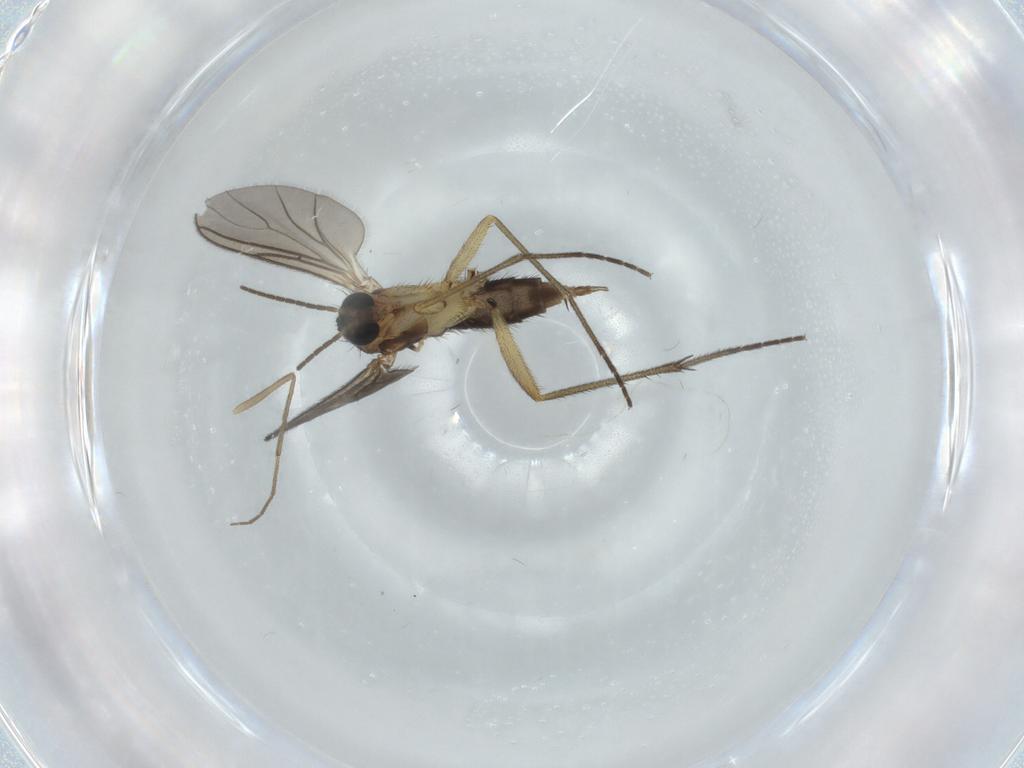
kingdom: Animalia
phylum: Arthropoda
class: Insecta
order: Diptera
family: Sciaridae
